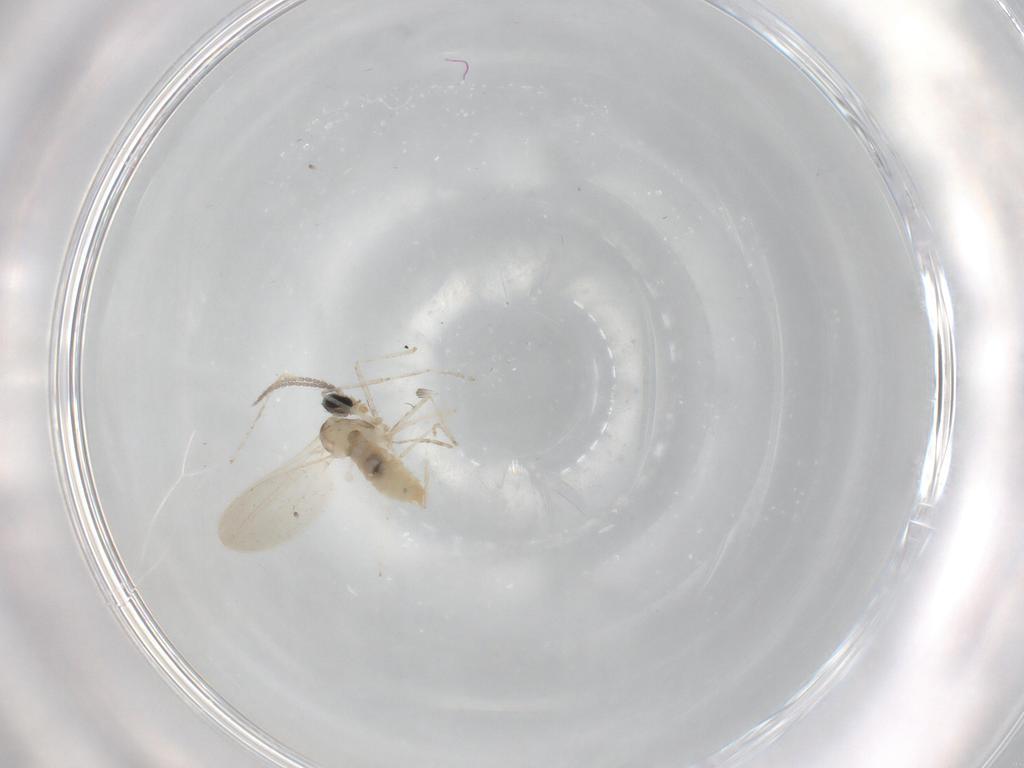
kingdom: Animalia
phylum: Arthropoda
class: Insecta
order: Diptera
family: Cecidomyiidae
